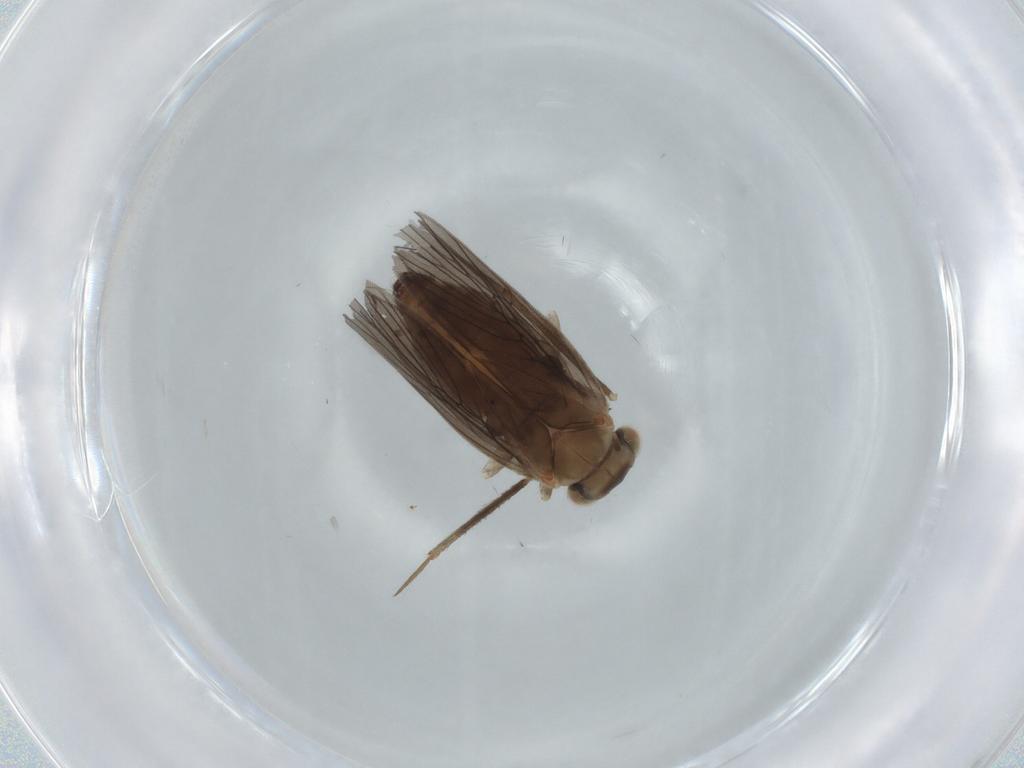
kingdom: Animalia
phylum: Arthropoda
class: Insecta
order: Psocodea
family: Lepidopsocidae
